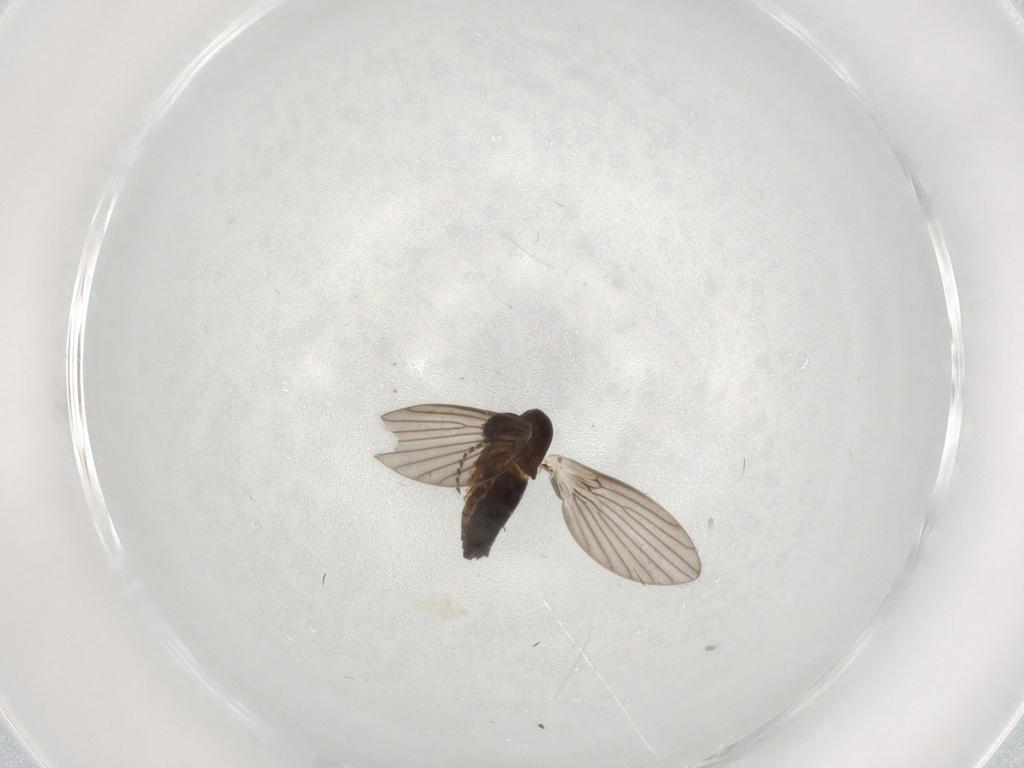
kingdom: Animalia
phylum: Arthropoda
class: Insecta
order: Diptera
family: Ceratopogonidae
